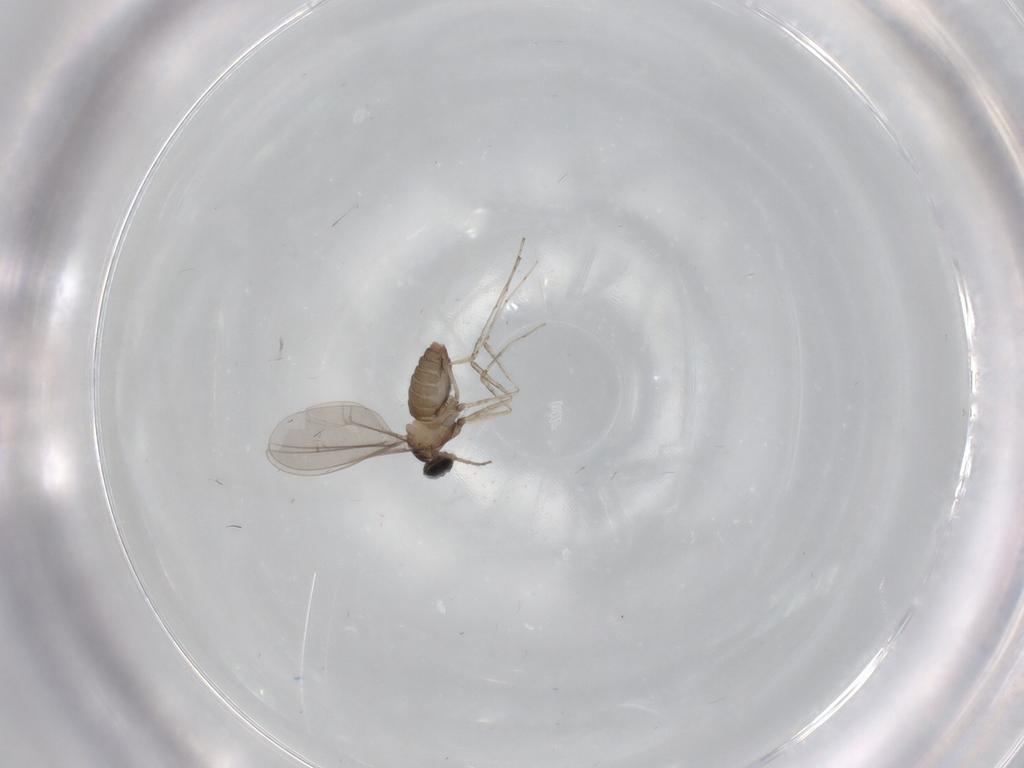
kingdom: Animalia
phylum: Arthropoda
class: Insecta
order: Diptera
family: Cecidomyiidae
